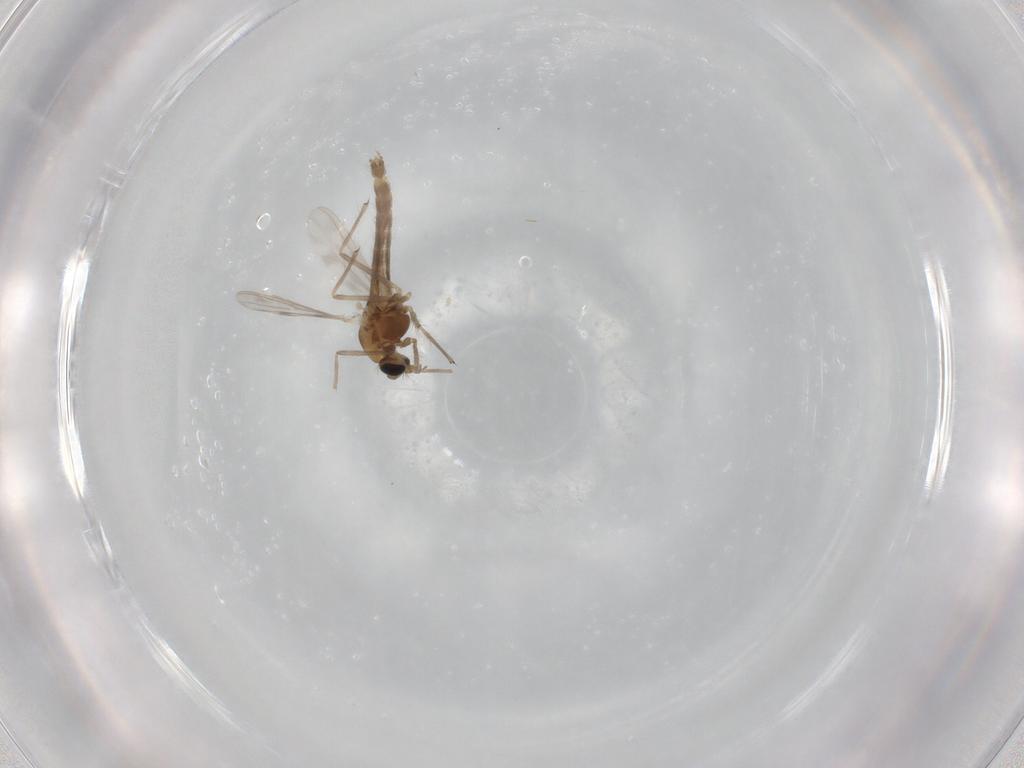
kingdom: Animalia
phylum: Arthropoda
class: Insecta
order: Diptera
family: Chironomidae
